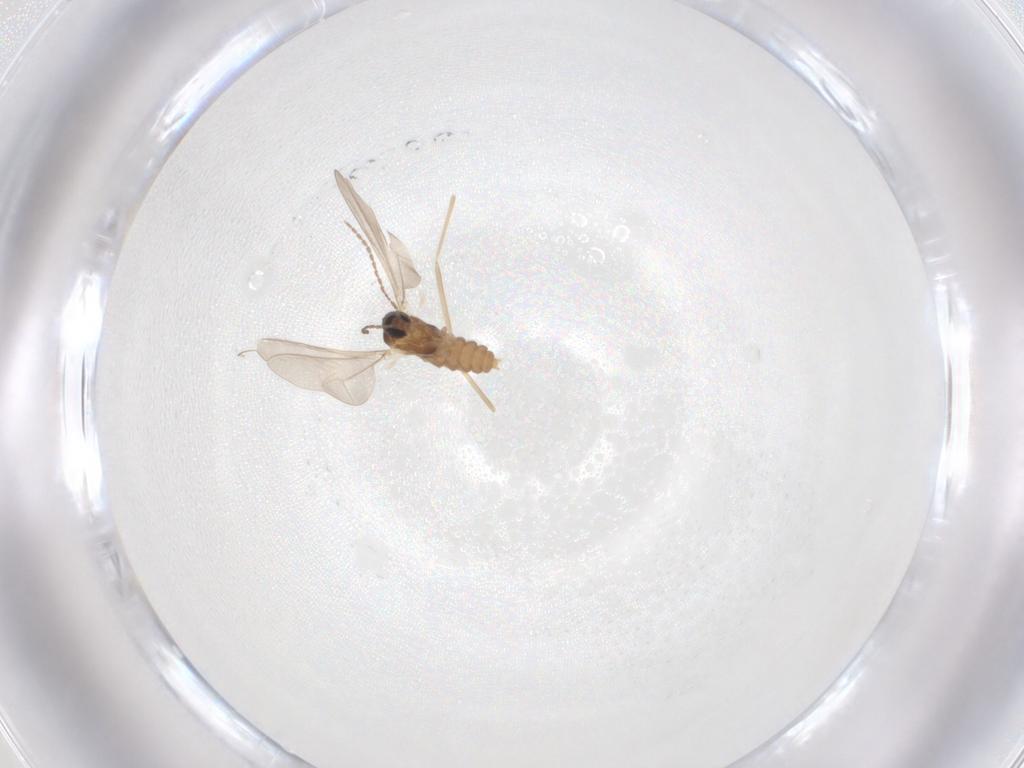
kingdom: Animalia
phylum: Arthropoda
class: Insecta
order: Diptera
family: Cecidomyiidae
